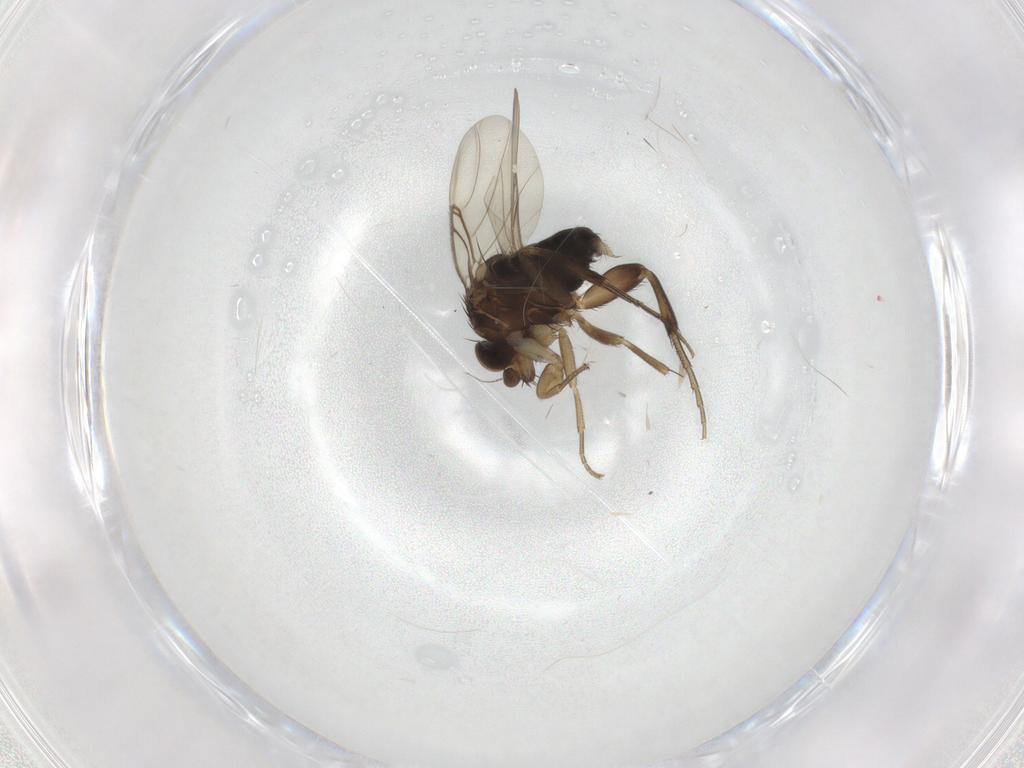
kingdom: Animalia
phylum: Arthropoda
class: Insecta
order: Diptera
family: Phoridae
